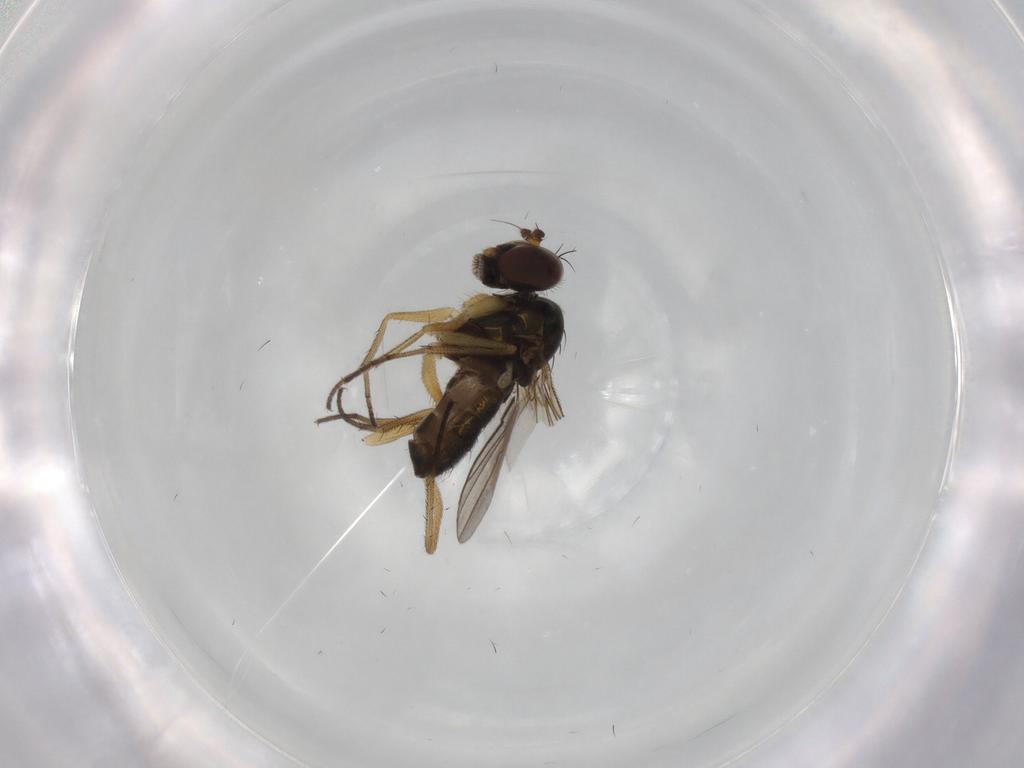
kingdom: Animalia
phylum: Arthropoda
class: Insecta
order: Diptera
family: Dolichopodidae
